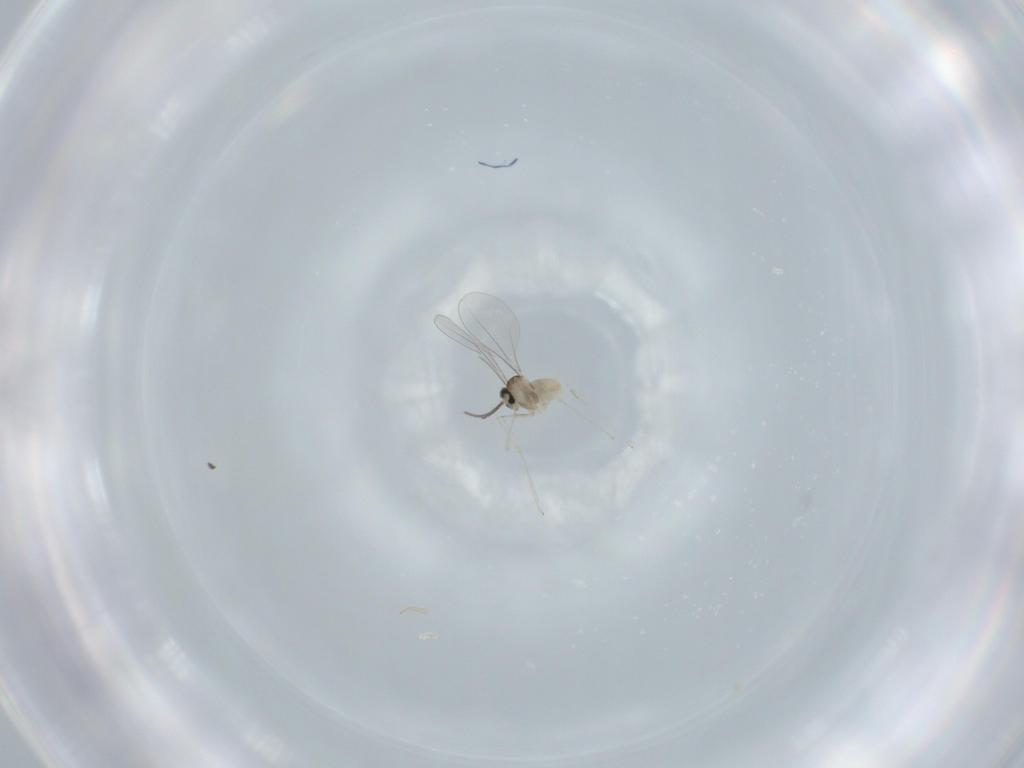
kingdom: Animalia
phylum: Arthropoda
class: Insecta
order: Diptera
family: Cecidomyiidae
